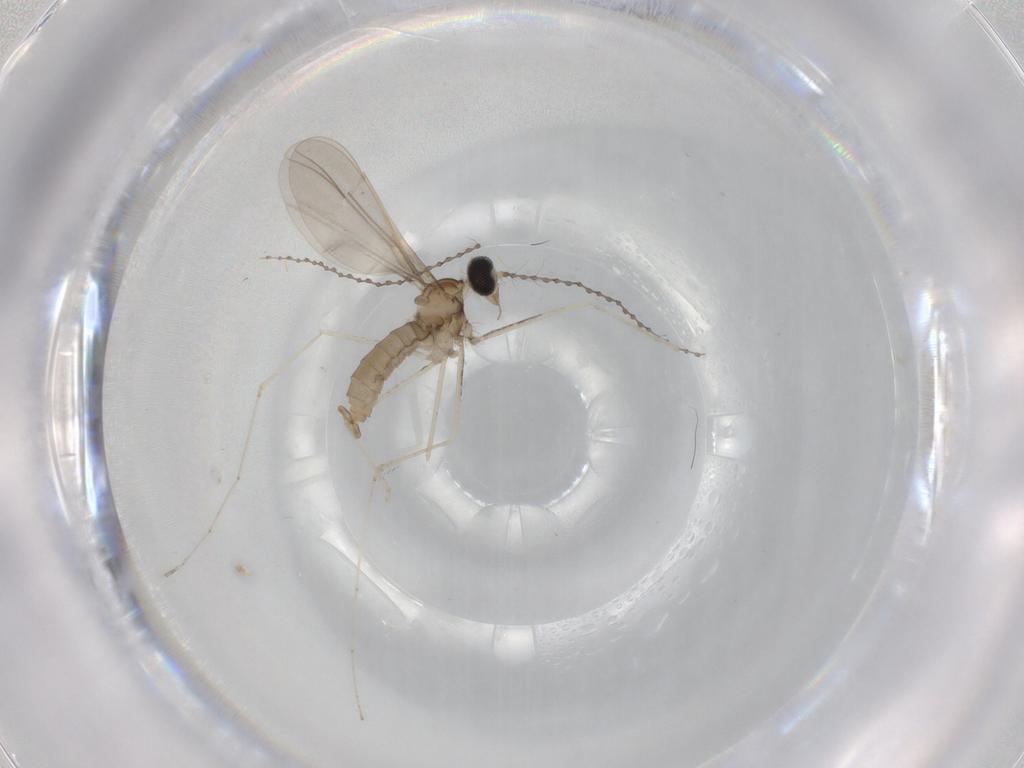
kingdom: Animalia
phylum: Arthropoda
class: Insecta
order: Diptera
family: Cecidomyiidae
